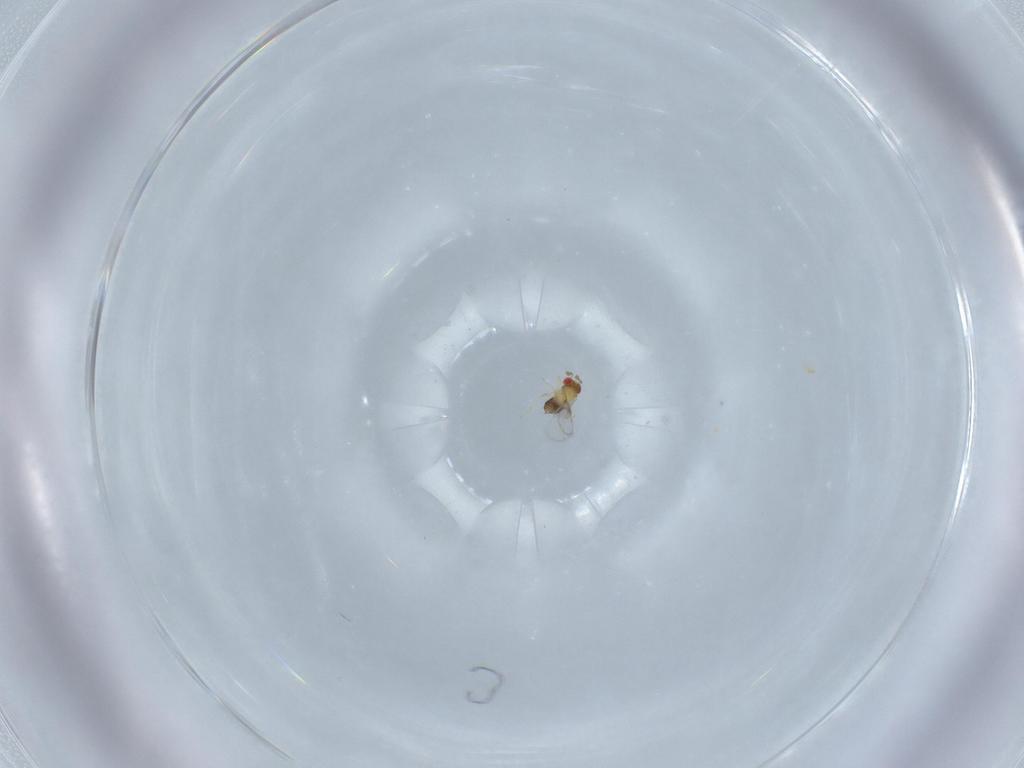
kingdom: Animalia
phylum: Arthropoda
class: Insecta
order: Hymenoptera
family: Trichogrammatidae
